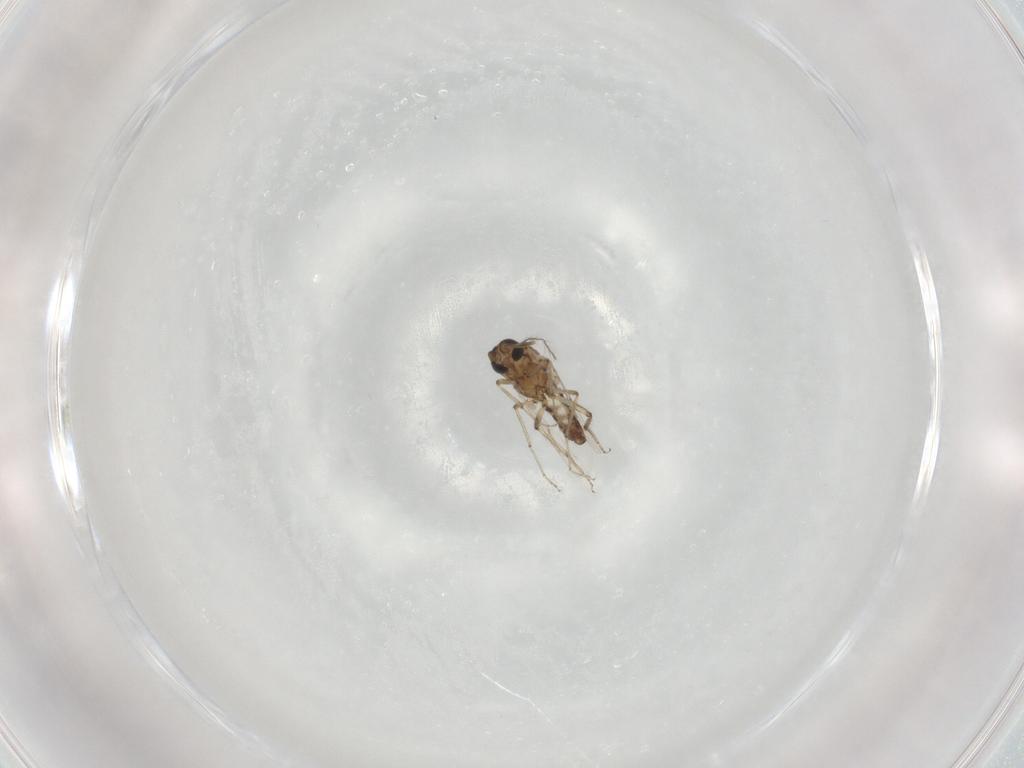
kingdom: Animalia
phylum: Arthropoda
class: Insecta
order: Diptera
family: Ceratopogonidae
